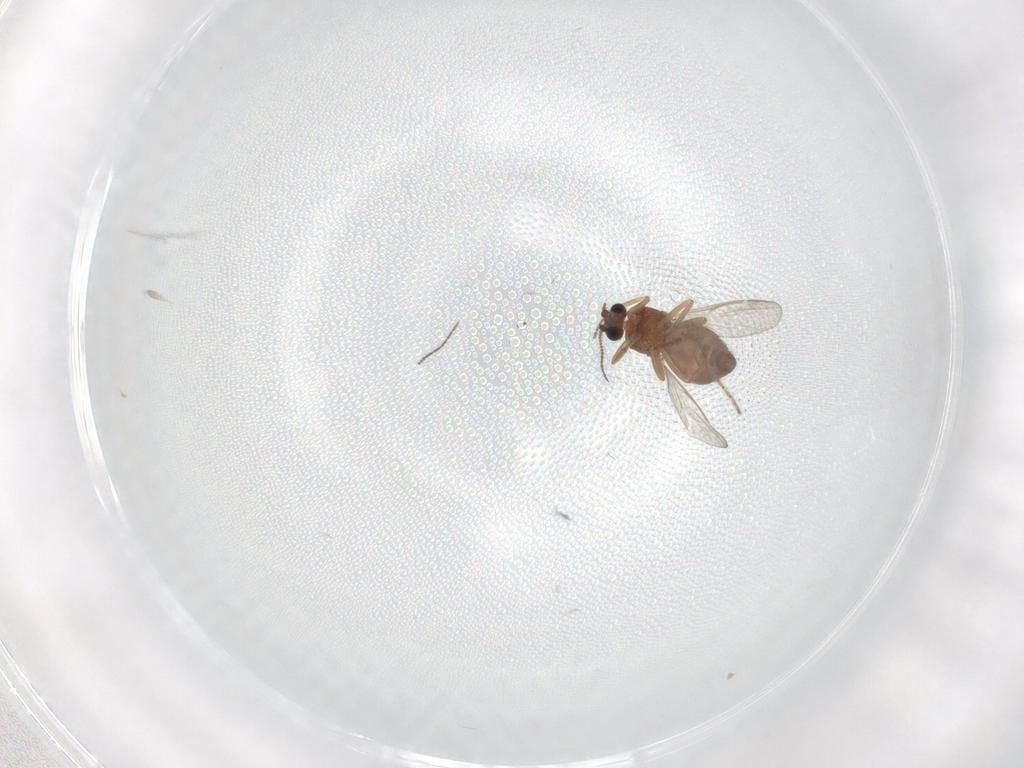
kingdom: Animalia
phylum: Arthropoda
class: Insecta
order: Diptera
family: Ceratopogonidae
